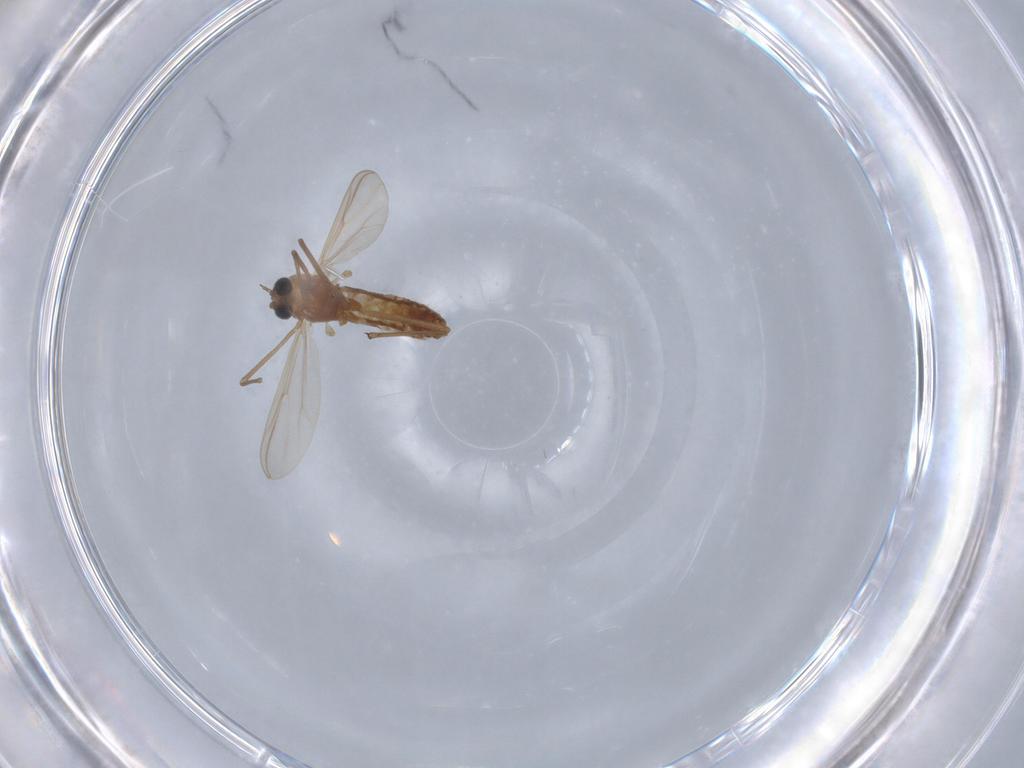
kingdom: Animalia
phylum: Arthropoda
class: Insecta
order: Diptera
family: Chironomidae
